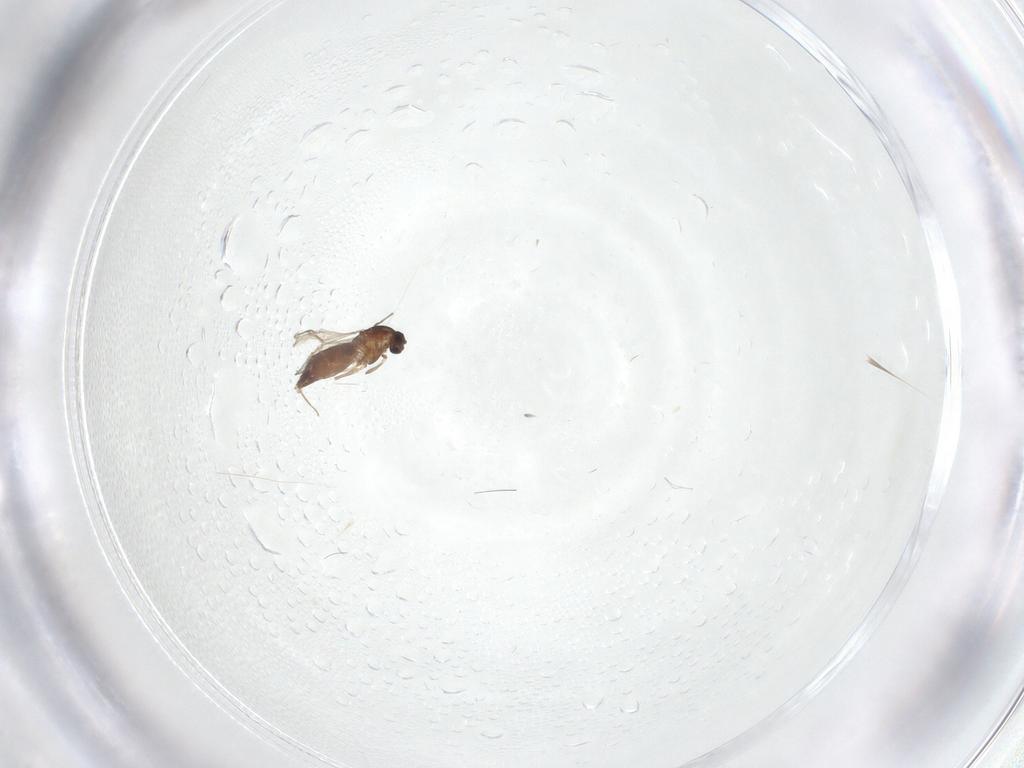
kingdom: Animalia
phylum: Arthropoda
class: Insecta
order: Diptera
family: Chironomidae
